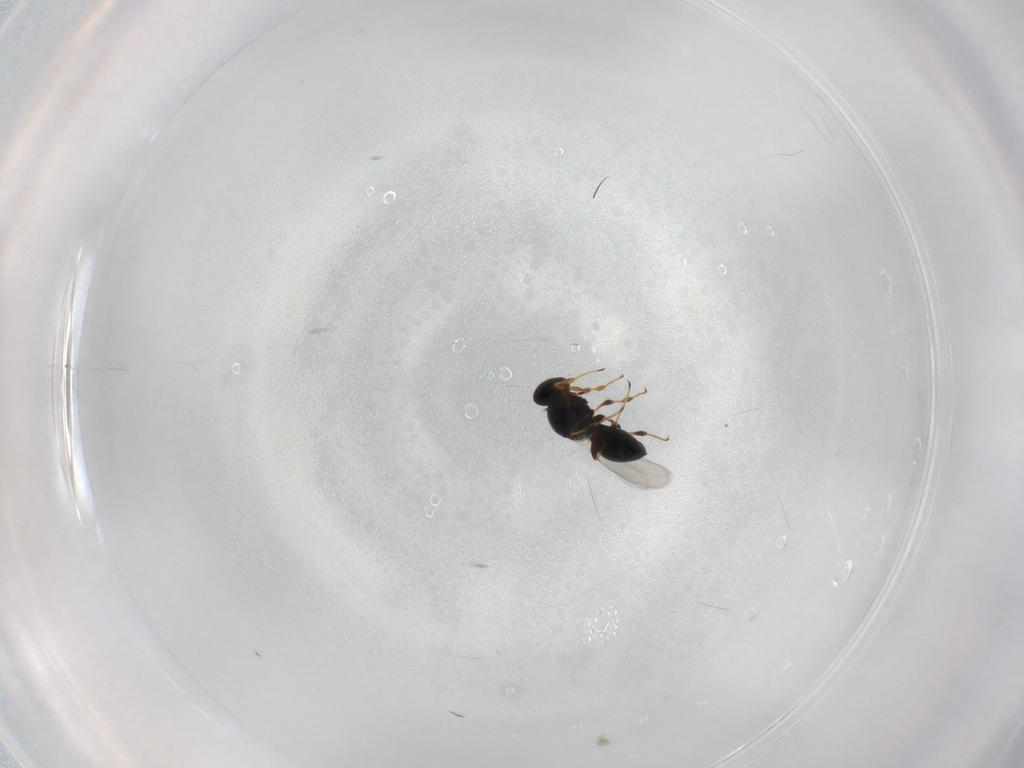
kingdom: Animalia
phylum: Arthropoda
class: Insecta
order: Hymenoptera
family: Platygastridae
